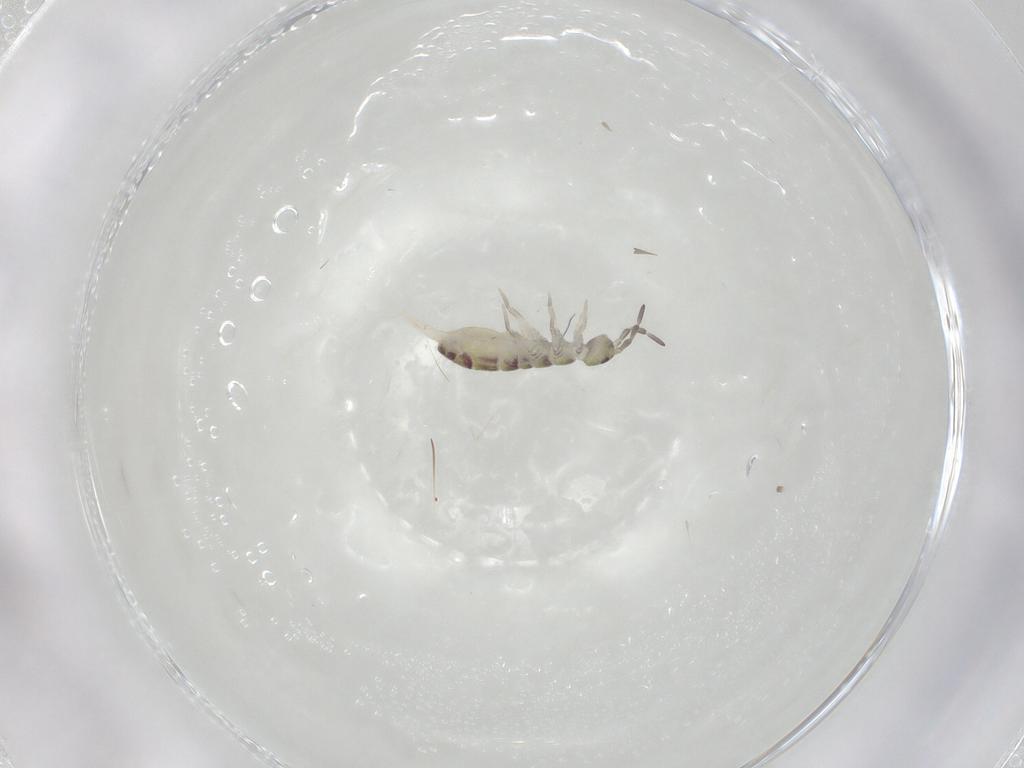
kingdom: Animalia
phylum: Arthropoda
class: Collembola
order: Entomobryomorpha
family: Isotomidae
